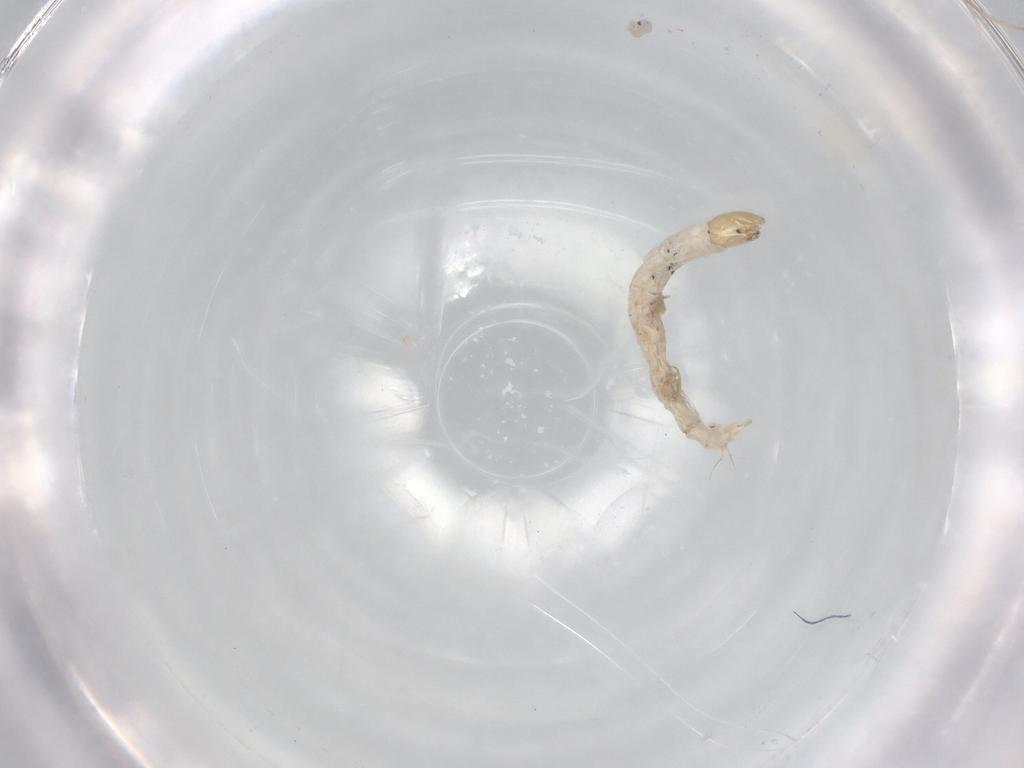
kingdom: Animalia
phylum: Arthropoda
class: Insecta
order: Diptera
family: Chironomidae
